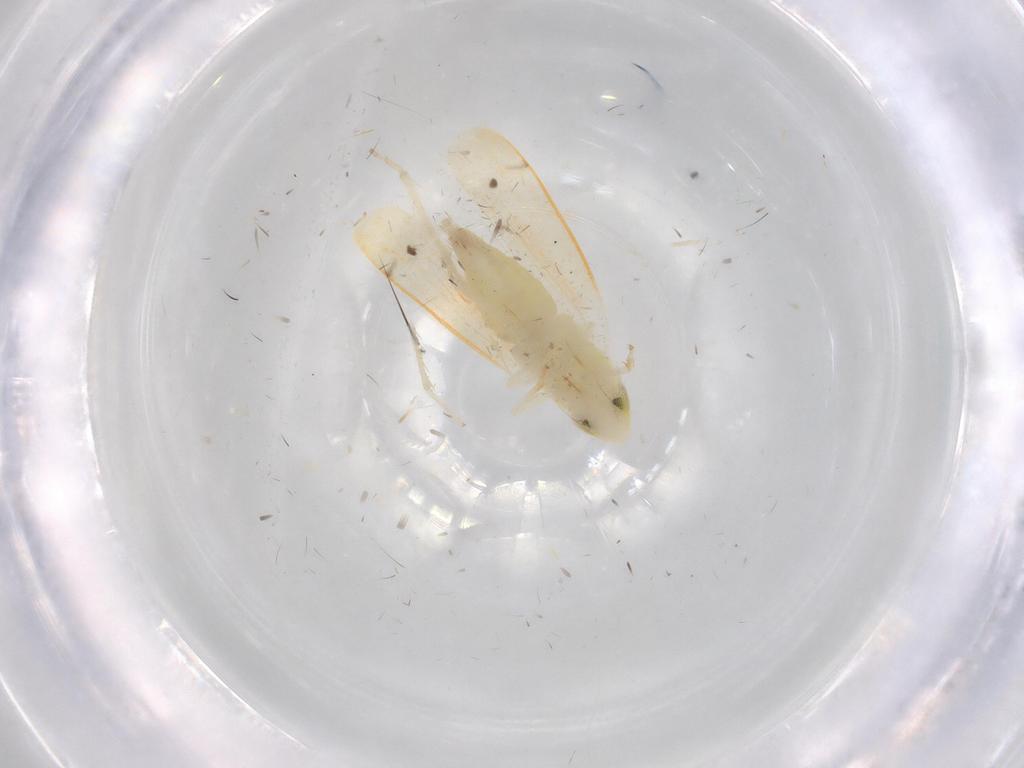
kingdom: Animalia
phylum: Arthropoda
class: Insecta
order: Hemiptera
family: Cicadellidae
